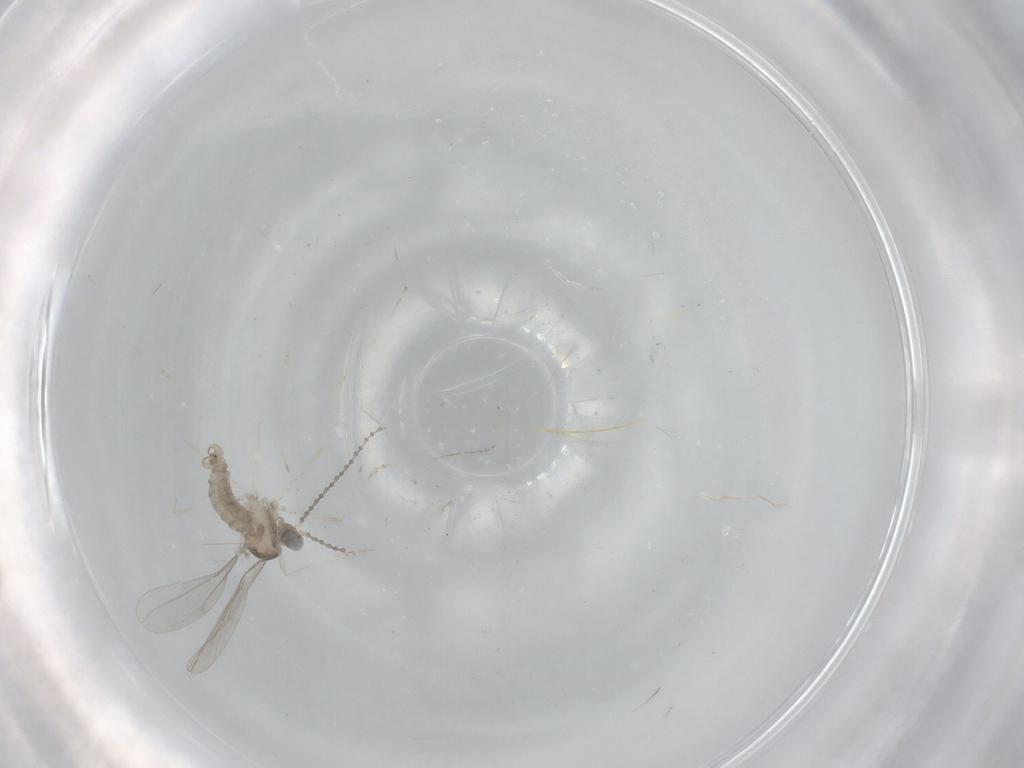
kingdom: Animalia
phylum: Arthropoda
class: Insecta
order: Diptera
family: Cecidomyiidae
